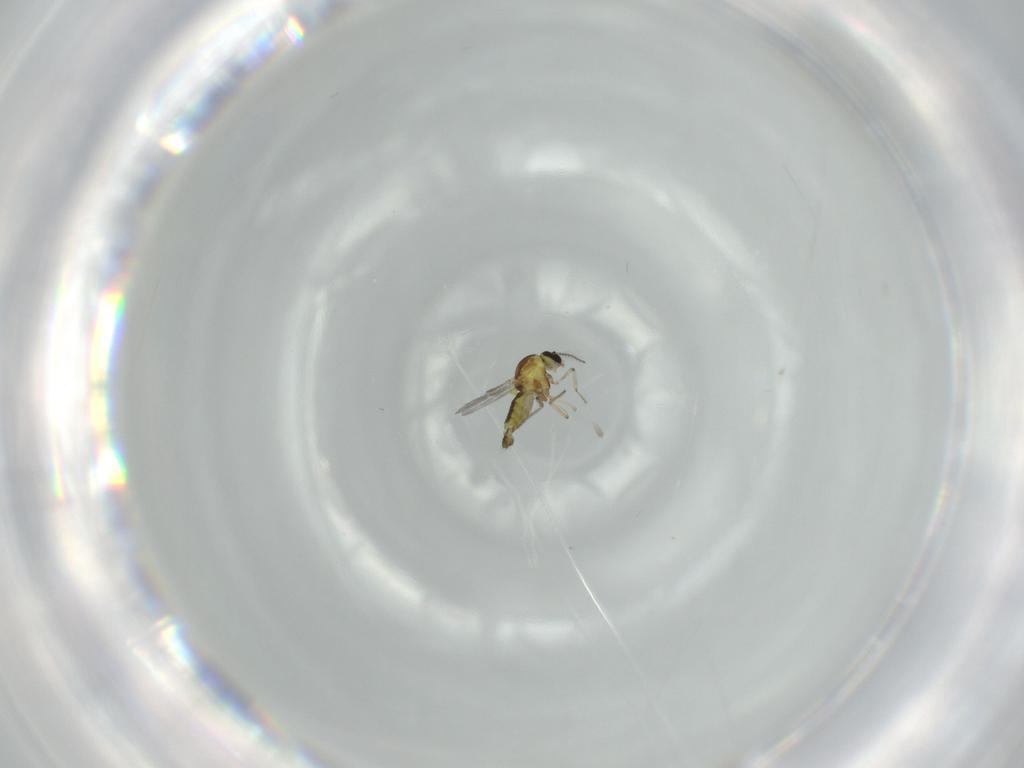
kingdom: Animalia
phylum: Arthropoda
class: Insecta
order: Diptera
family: Ceratopogonidae
